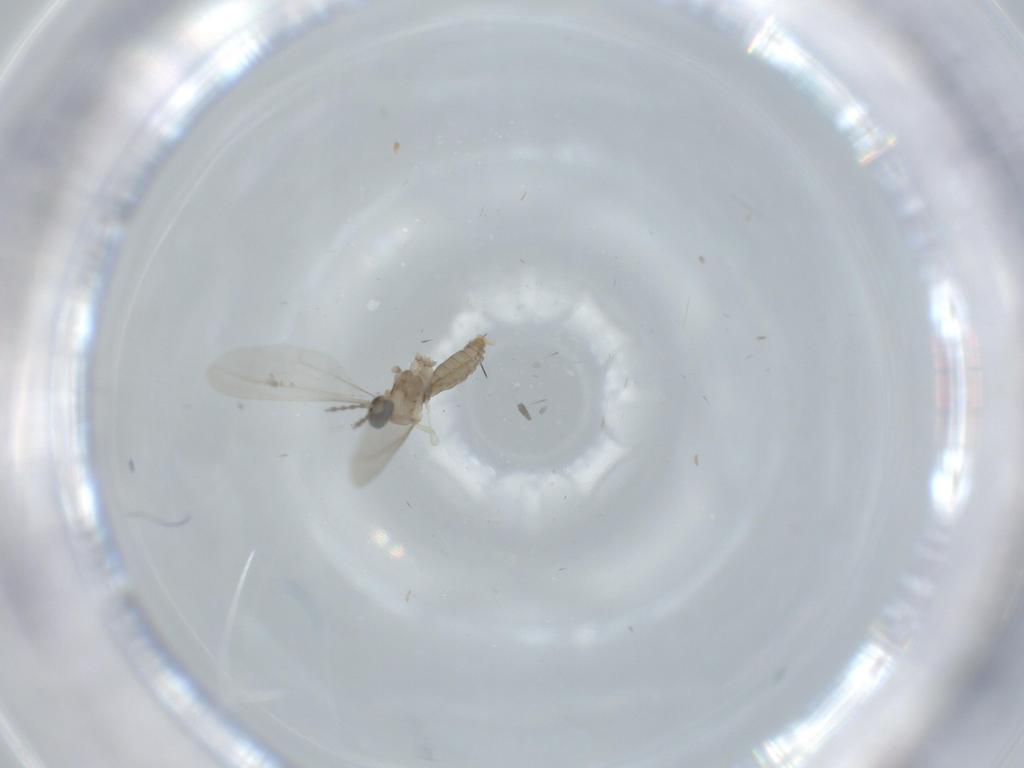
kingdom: Animalia
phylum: Arthropoda
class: Insecta
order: Diptera
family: Cecidomyiidae
